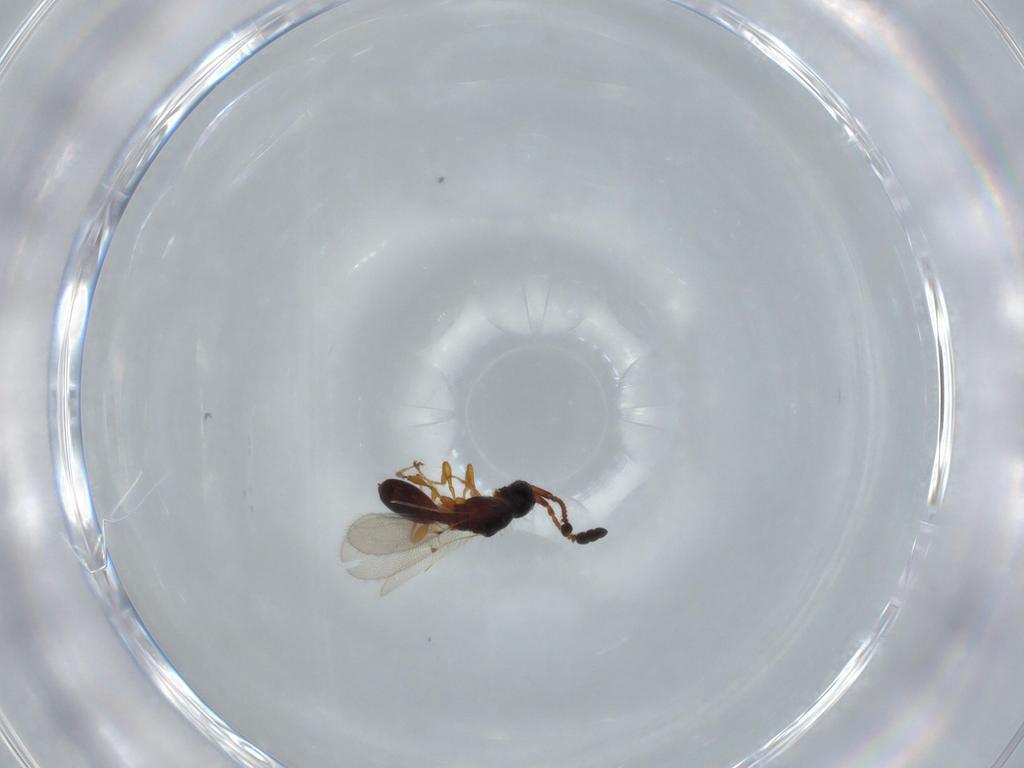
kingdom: Animalia
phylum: Arthropoda
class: Insecta
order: Hymenoptera
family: Diapriidae
